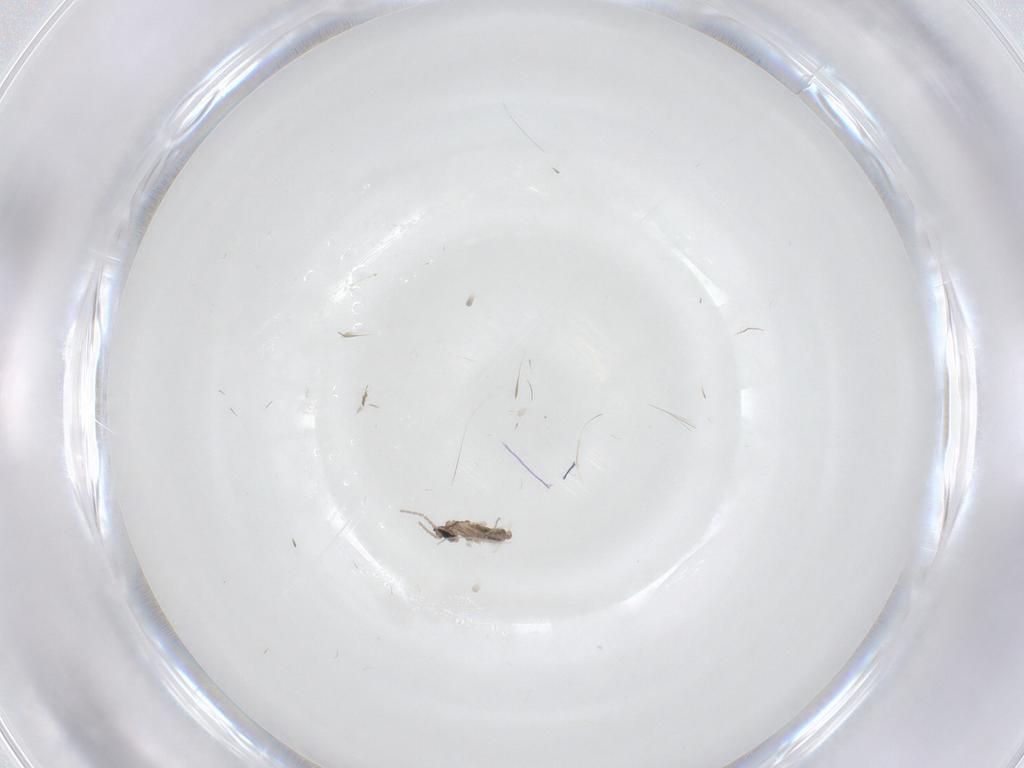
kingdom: Animalia
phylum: Arthropoda
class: Insecta
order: Diptera
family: Cecidomyiidae
